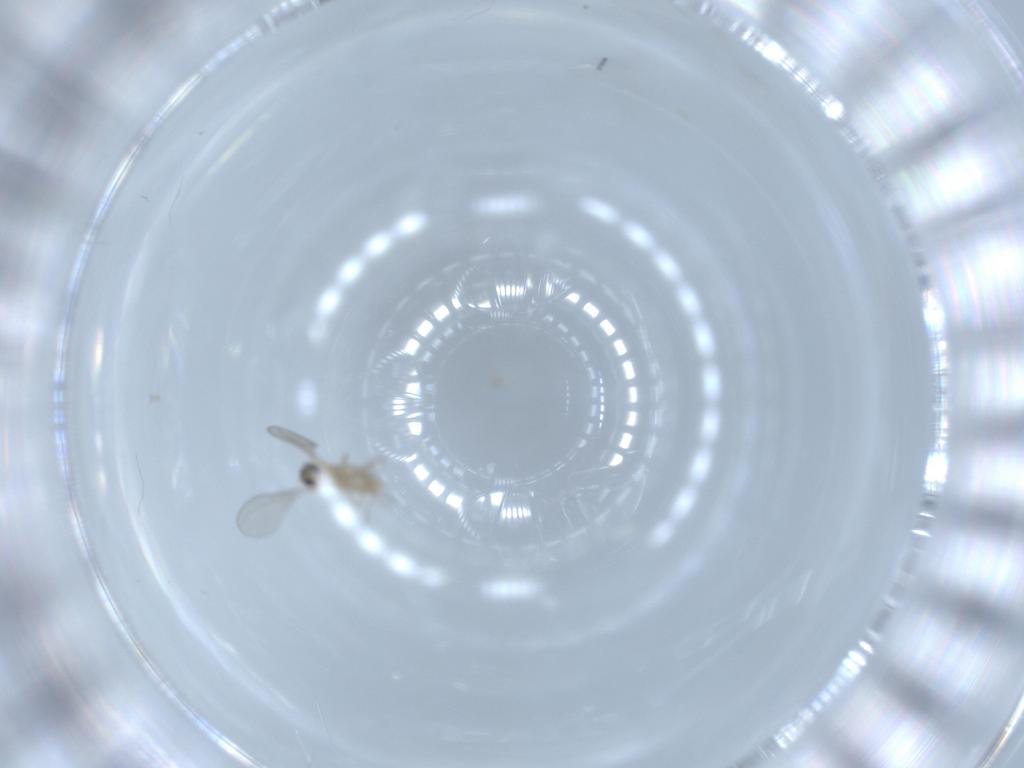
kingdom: Animalia
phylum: Arthropoda
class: Insecta
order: Diptera
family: Cecidomyiidae
